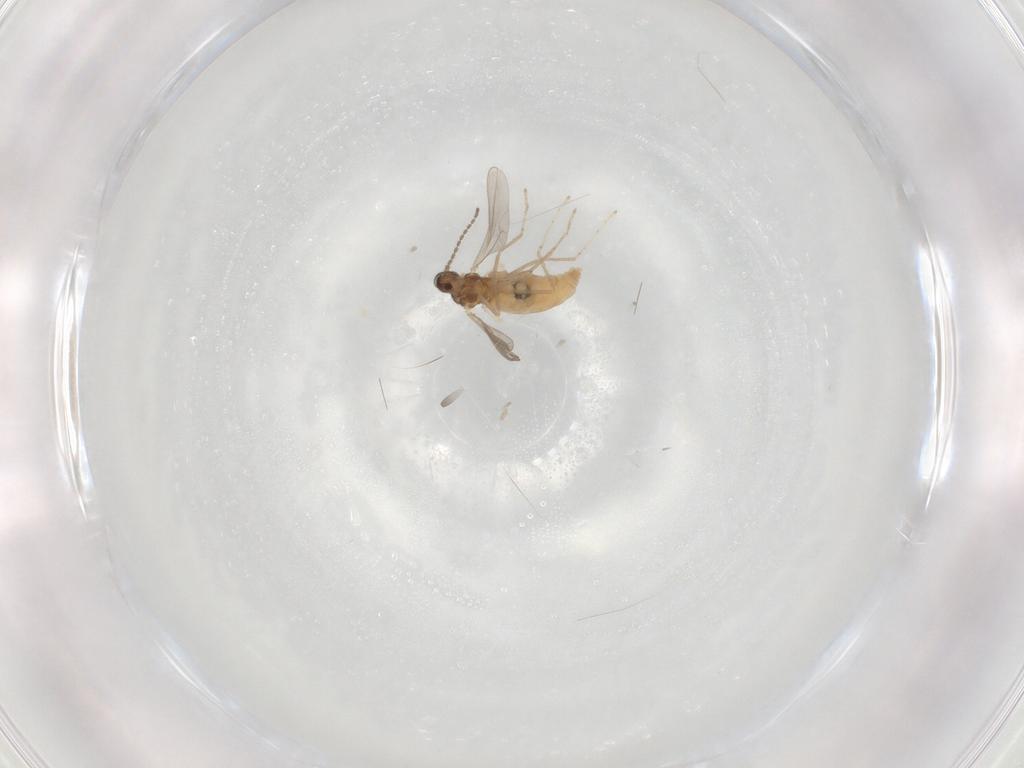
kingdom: Animalia
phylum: Arthropoda
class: Insecta
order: Diptera
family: Cecidomyiidae
